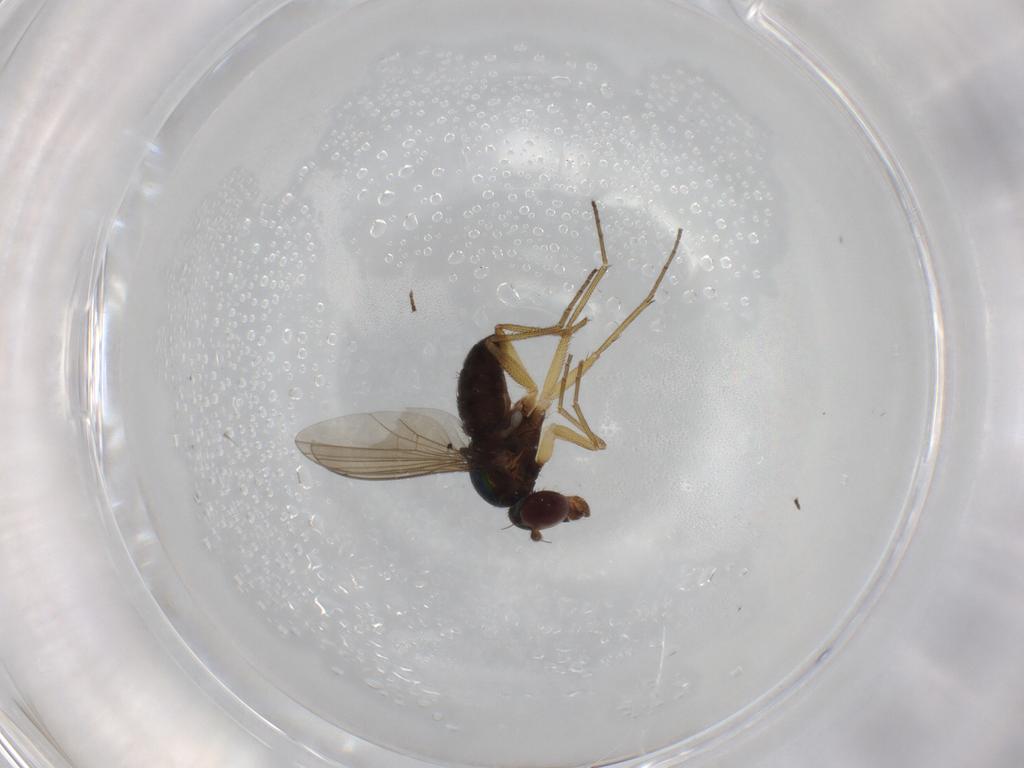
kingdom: Animalia
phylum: Arthropoda
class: Insecta
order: Diptera
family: Dolichopodidae
